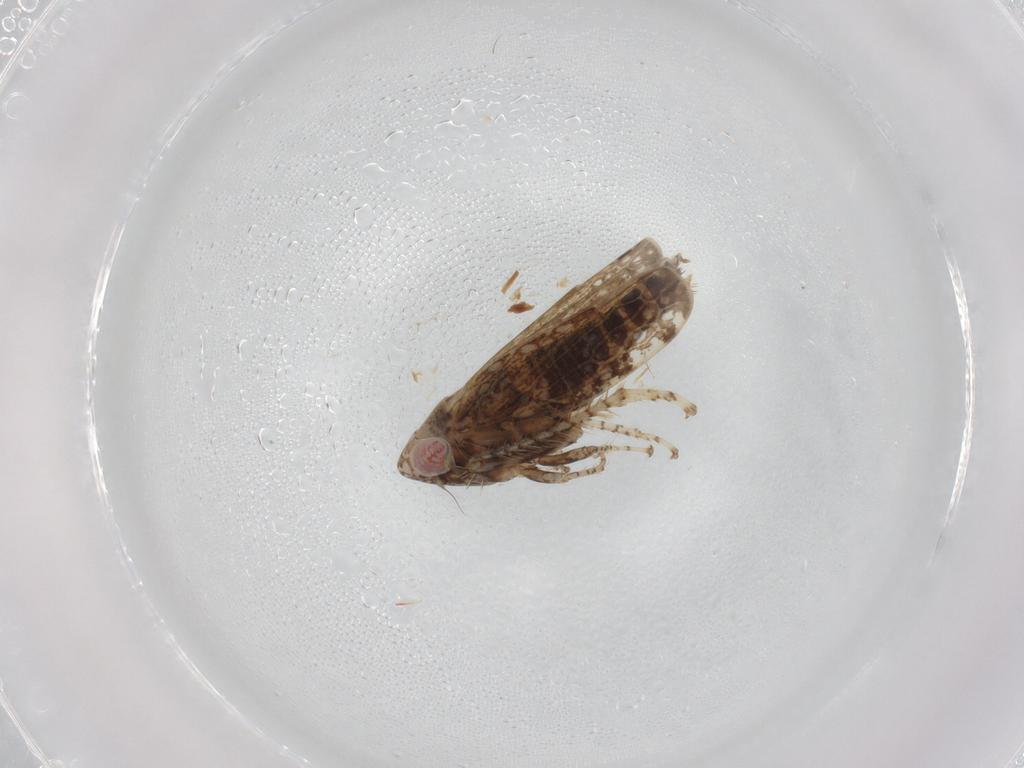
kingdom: Animalia
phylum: Arthropoda
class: Insecta
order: Hemiptera
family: Cicadellidae
